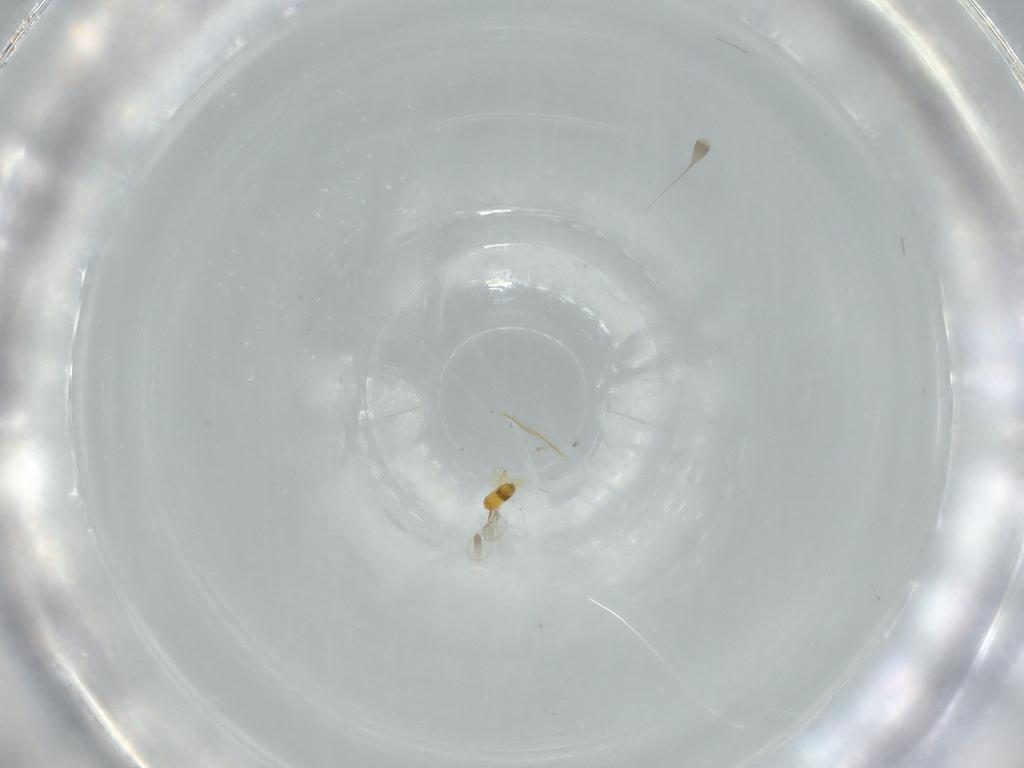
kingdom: Animalia
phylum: Arthropoda
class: Insecta
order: Hymenoptera
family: Trichogrammatidae
